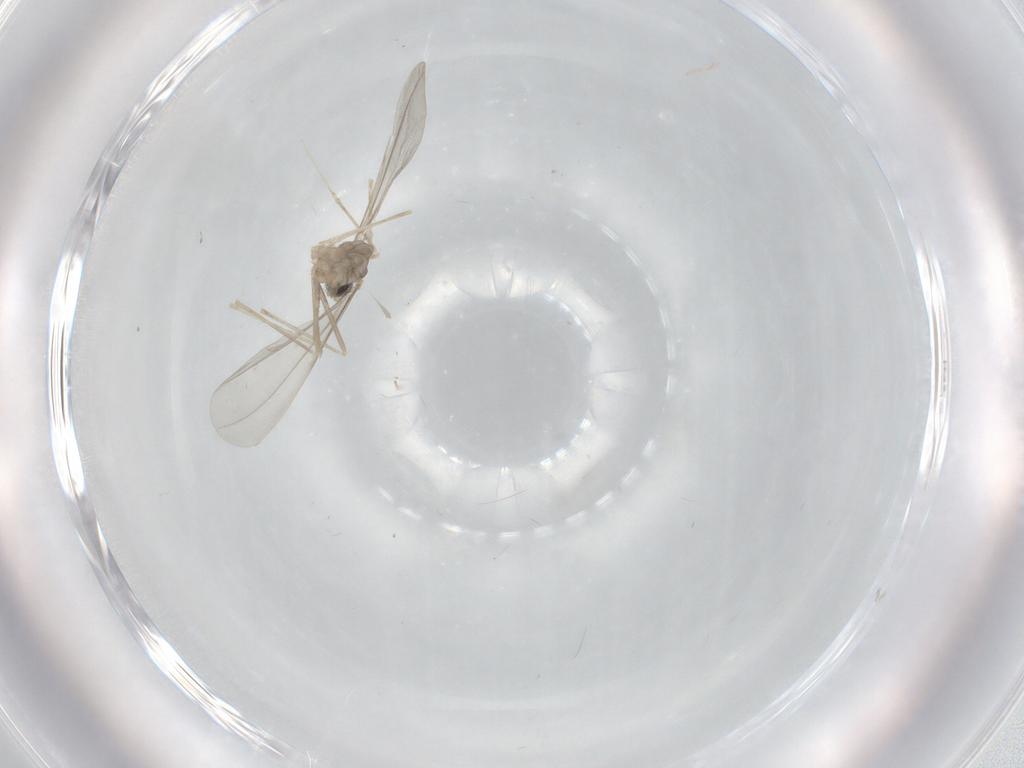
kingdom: Animalia
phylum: Arthropoda
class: Insecta
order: Diptera
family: Cecidomyiidae
